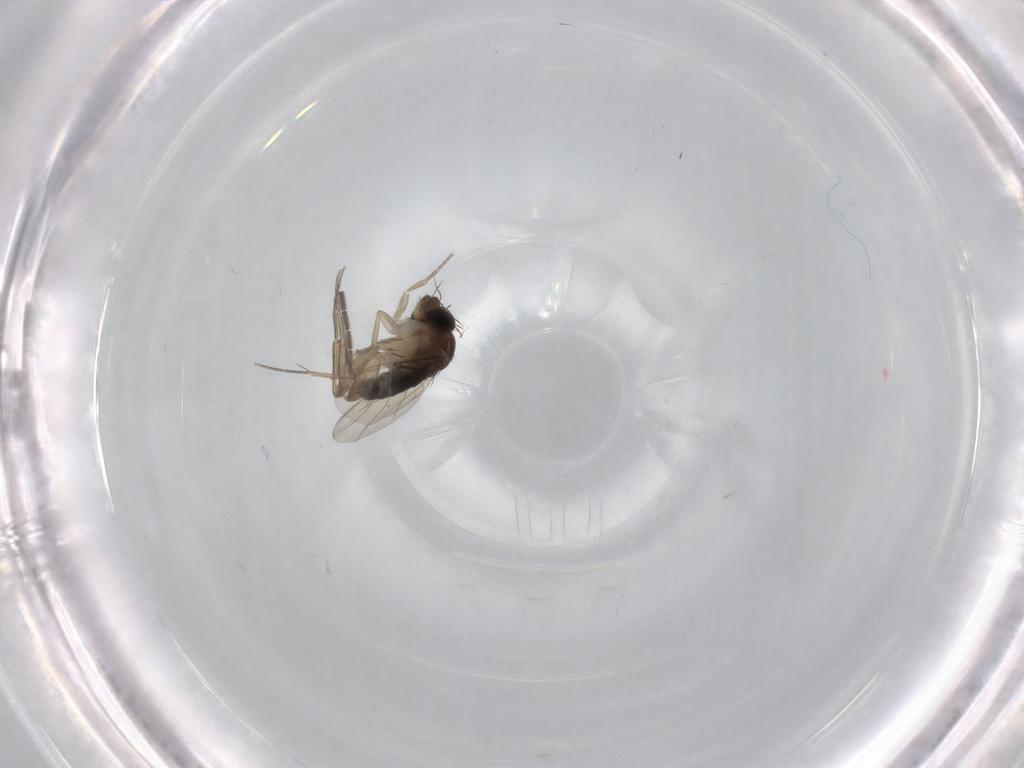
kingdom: Animalia
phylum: Arthropoda
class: Insecta
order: Diptera
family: Phoridae
